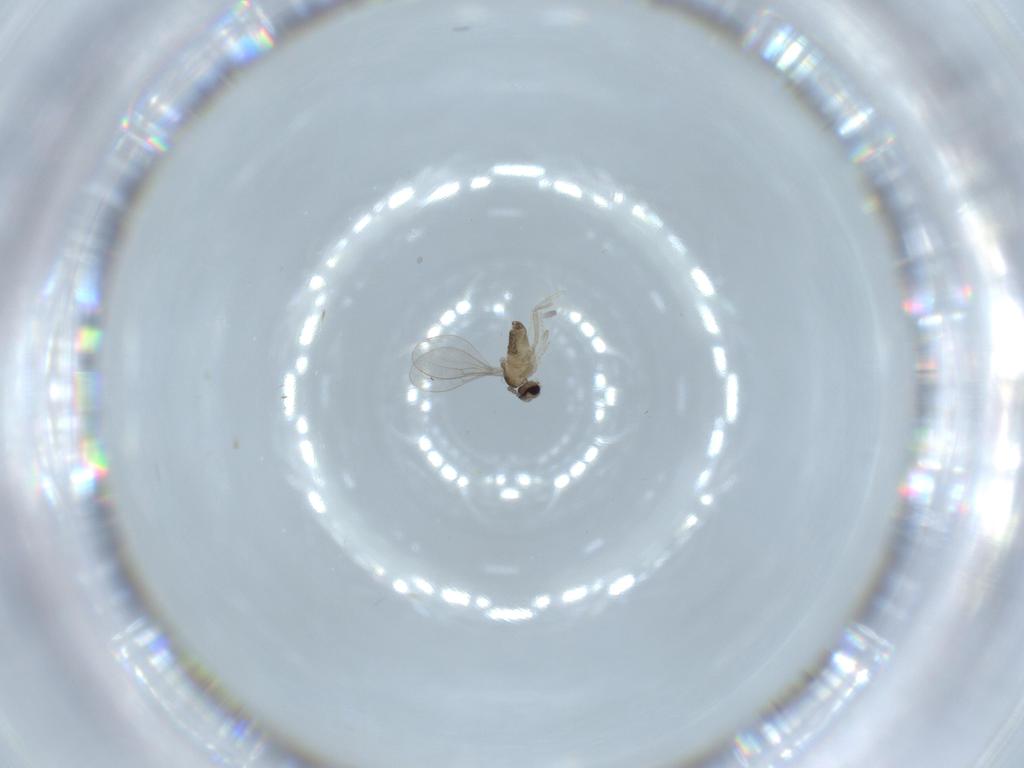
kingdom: Animalia
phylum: Arthropoda
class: Insecta
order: Diptera
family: Cecidomyiidae
